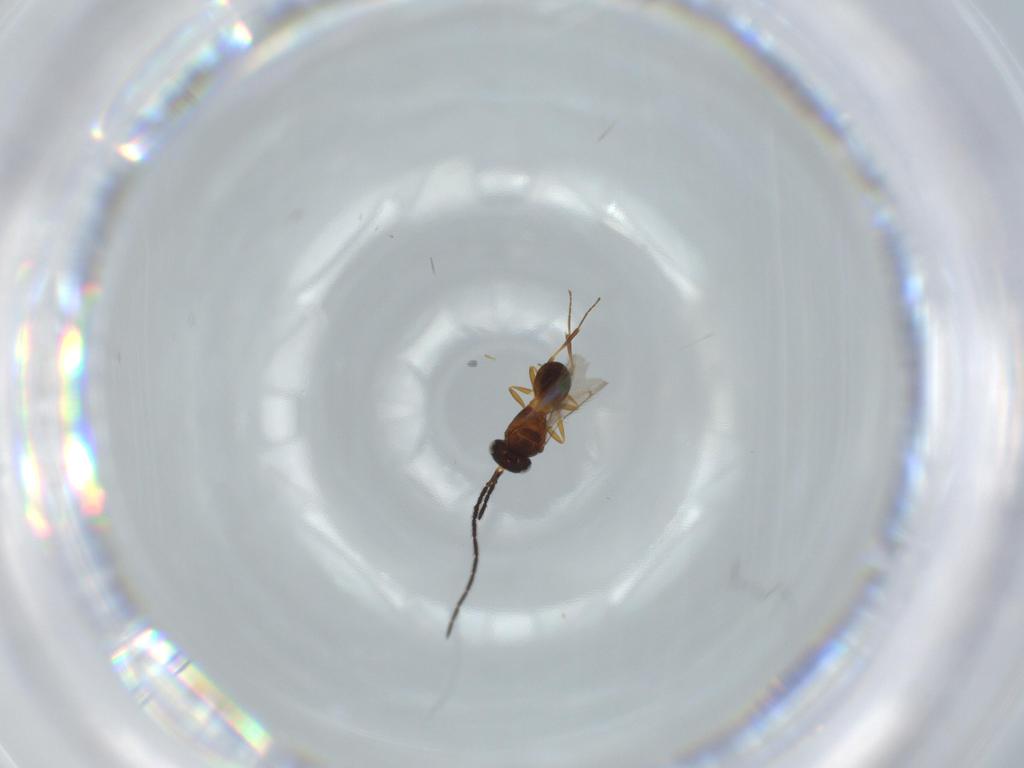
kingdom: Animalia
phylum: Arthropoda
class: Insecta
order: Hymenoptera
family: Scelionidae
